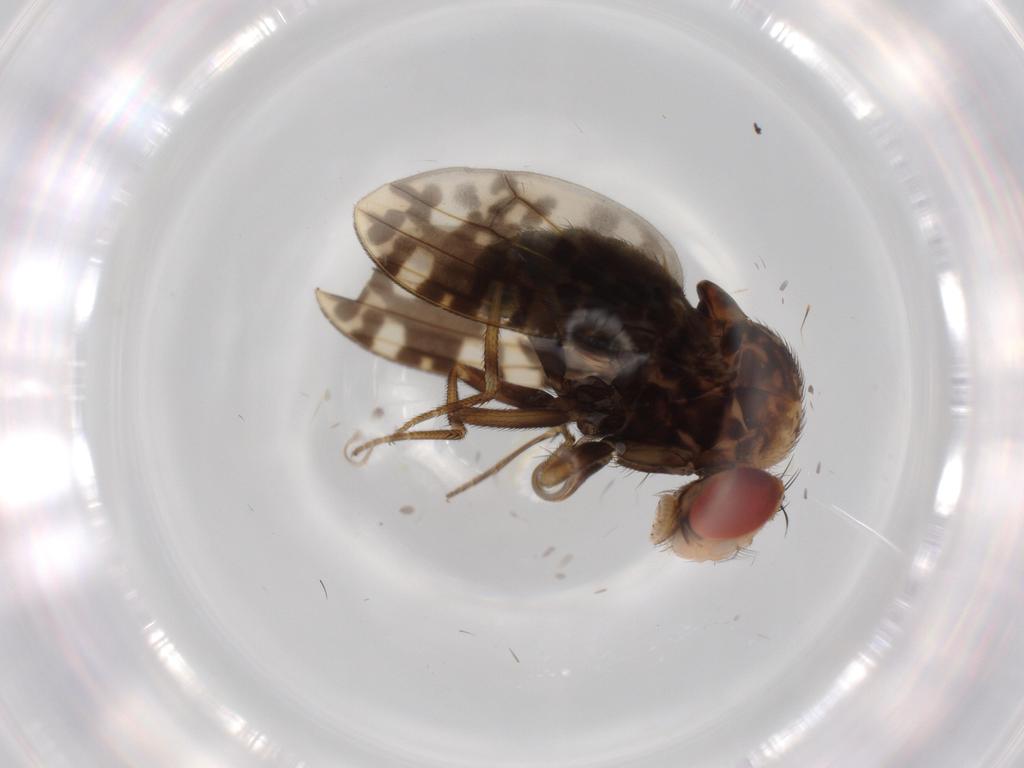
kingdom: Animalia
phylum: Arthropoda
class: Insecta
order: Diptera
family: Drosophilidae
